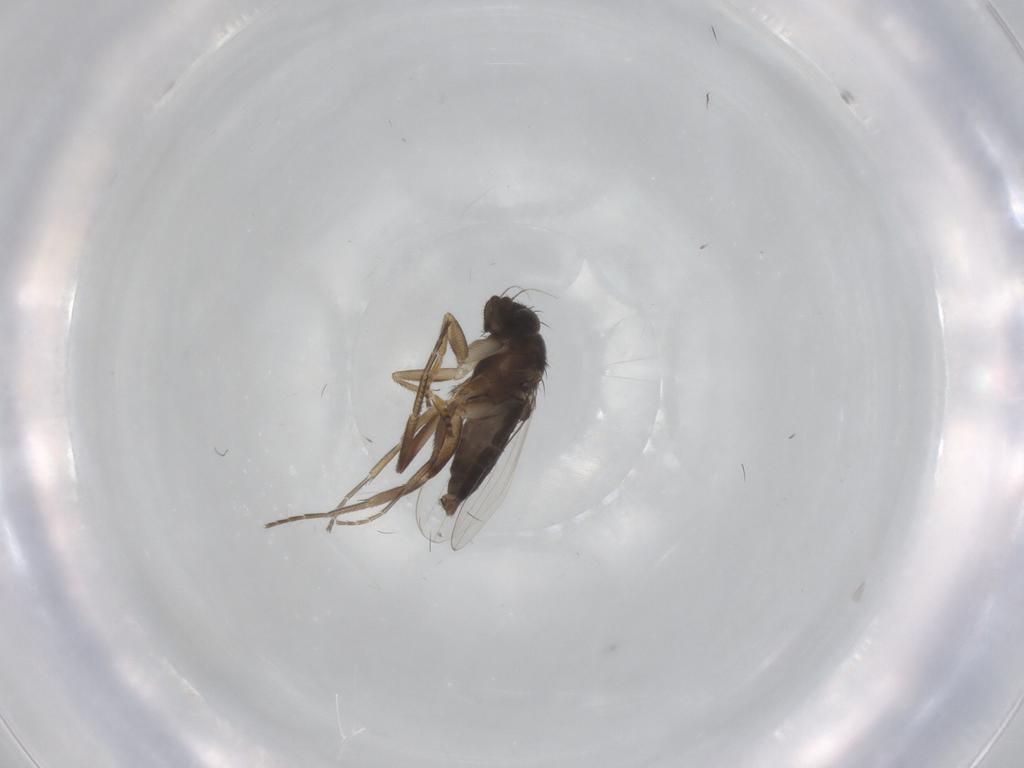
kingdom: Animalia
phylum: Arthropoda
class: Insecta
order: Diptera
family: Phoridae
